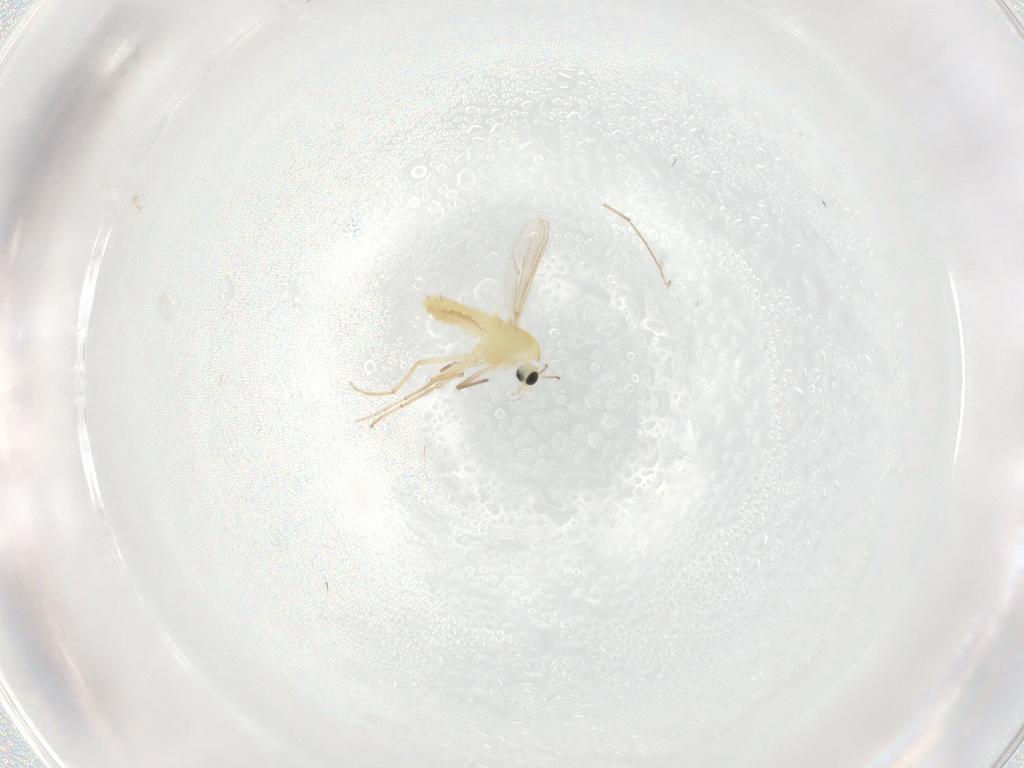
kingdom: Animalia
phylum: Arthropoda
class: Insecta
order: Diptera
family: Chironomidae
